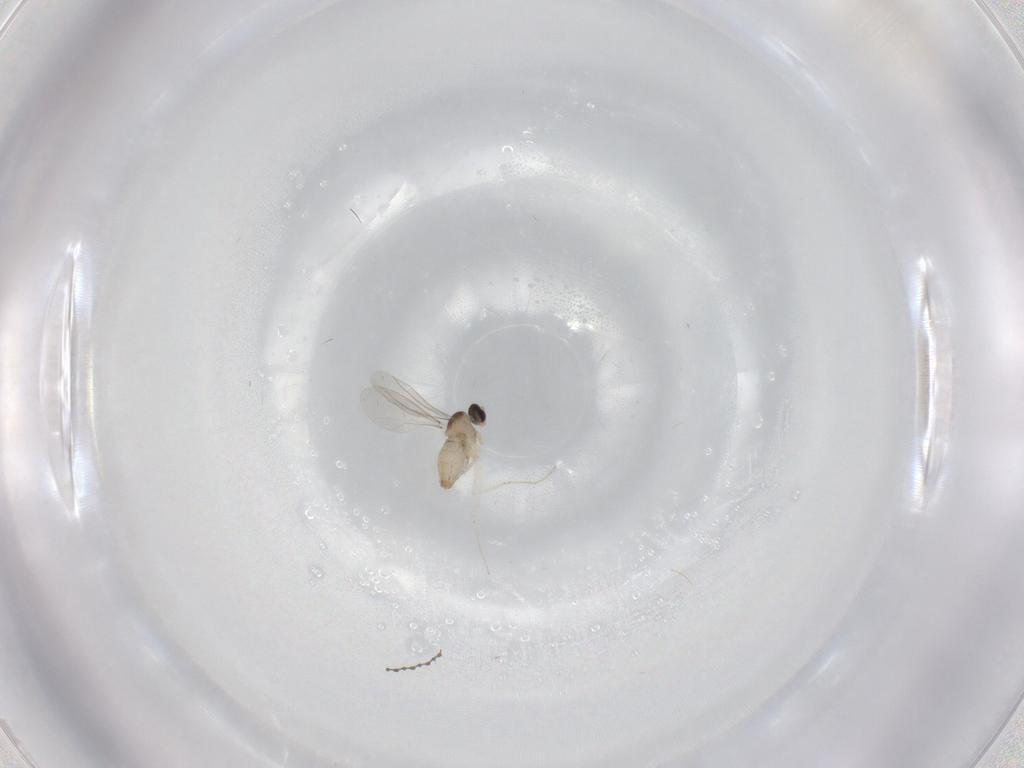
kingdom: Animalia
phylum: Arthropoda
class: Insecta
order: Diptera
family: Cecidomyiidae
